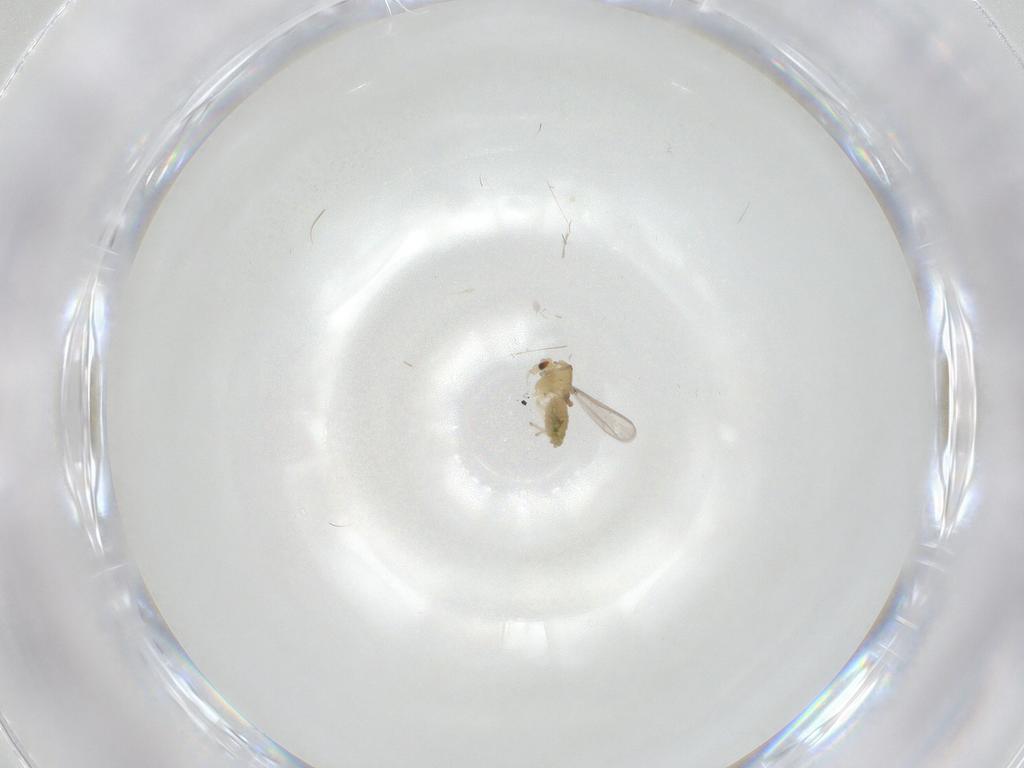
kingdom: Animalia
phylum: Arthropoda
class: Insecta
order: Diptera
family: Chironomidae
